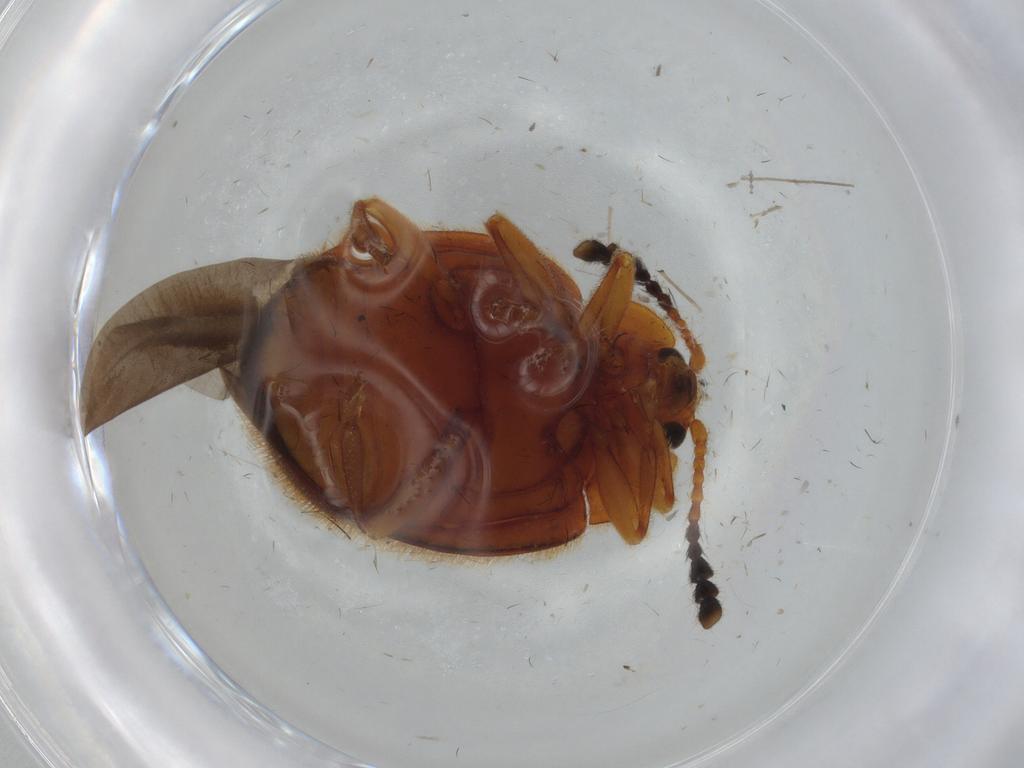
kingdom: Animalia
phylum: Arthropoda
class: Insecta
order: Coleoptera
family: Endomychidae
